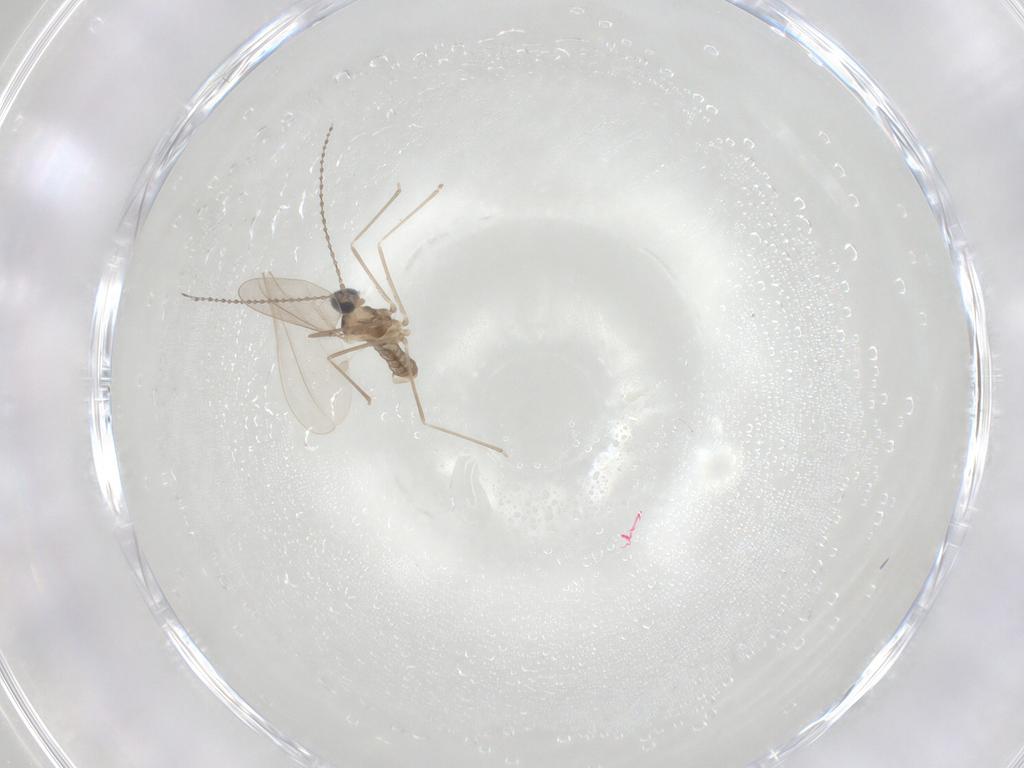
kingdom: Animalia
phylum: Arthropoda
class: Insecta
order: Diptera
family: Cecidomyiidae
